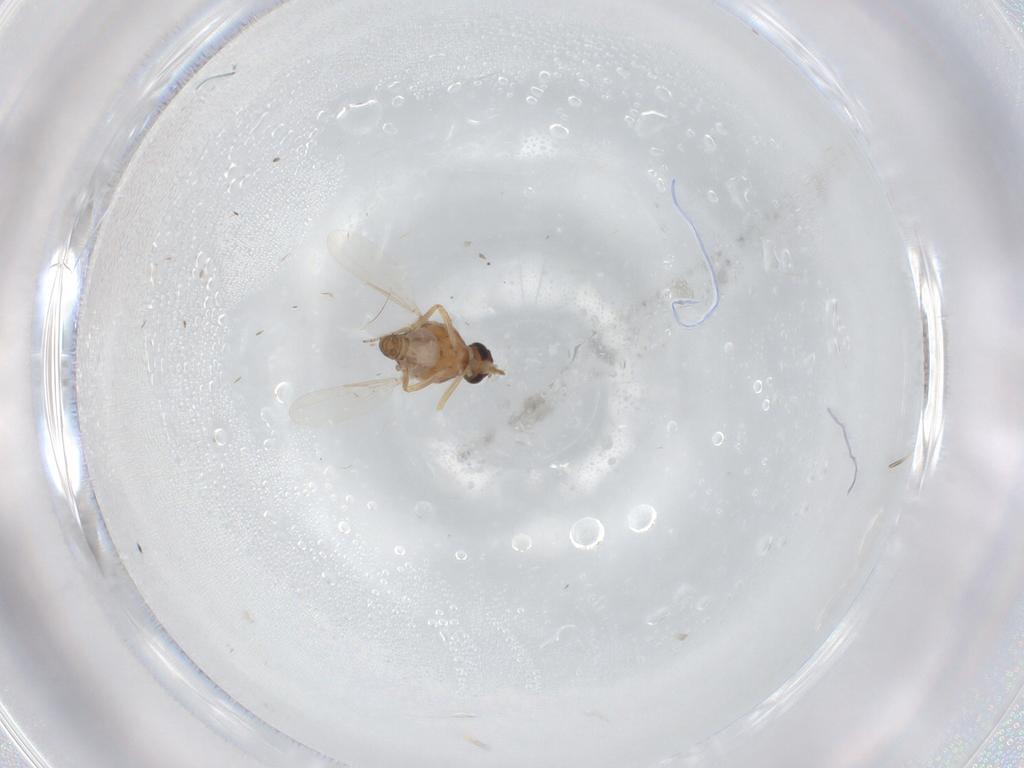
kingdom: Animalia
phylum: Arthropoda
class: Insecta
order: Diptera
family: Ceratopogonidae
